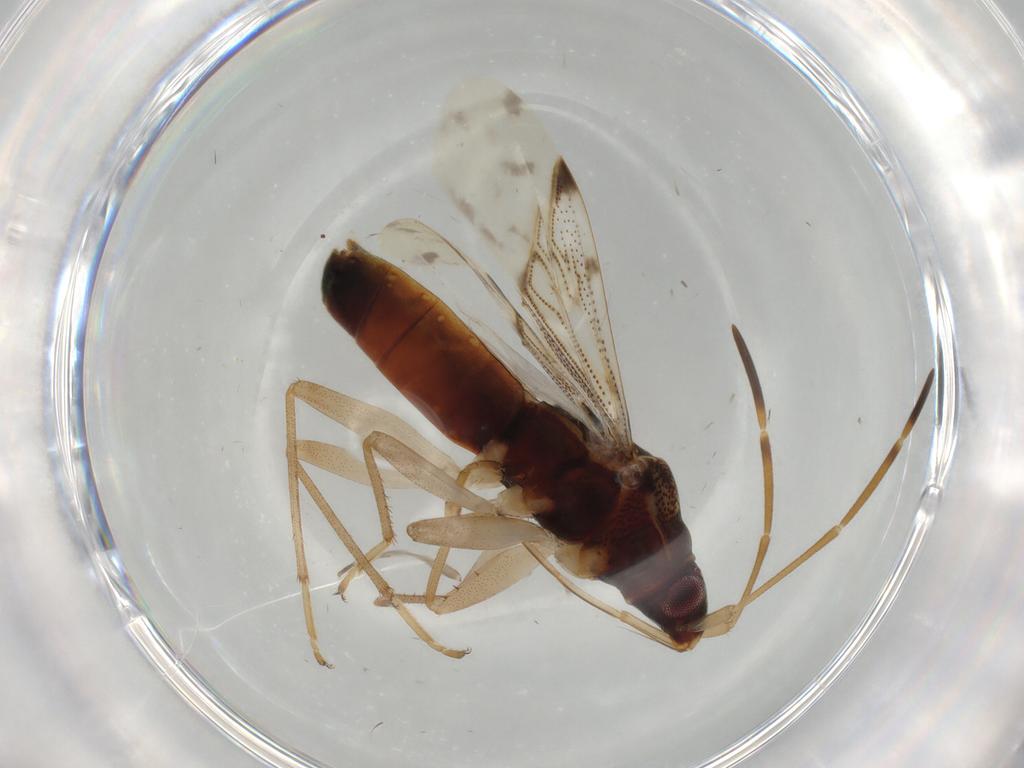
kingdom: Animalia
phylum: Arthropoda
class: Insecta
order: Hemiptera
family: Rhyparochromidae
